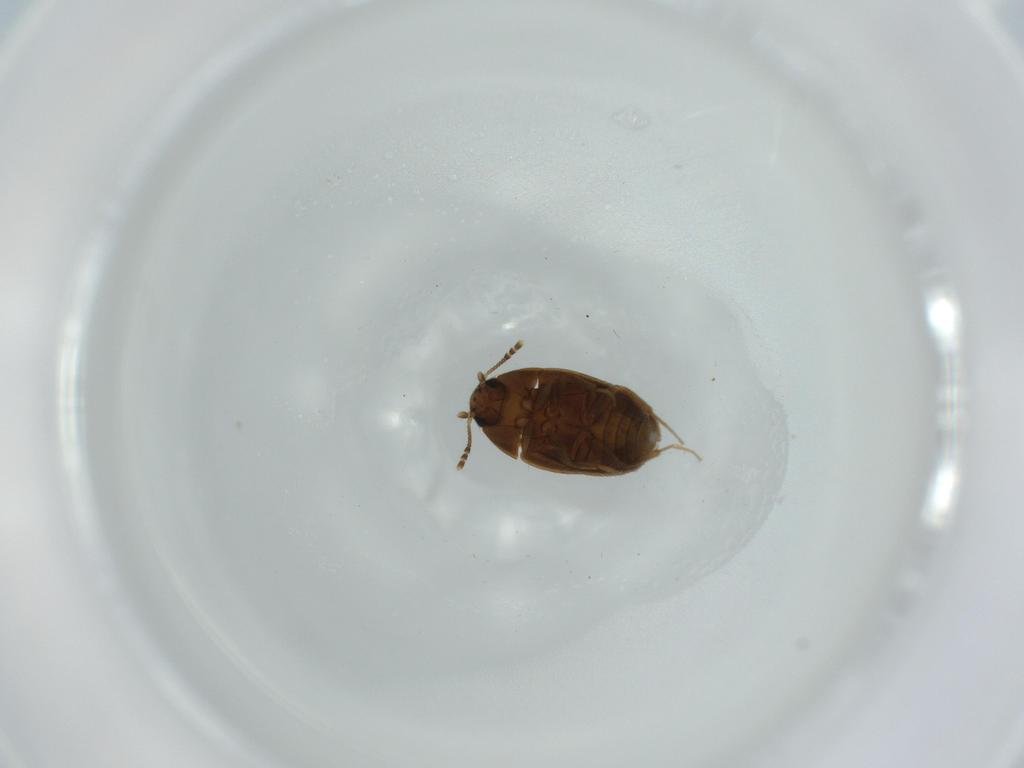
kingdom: Animalia
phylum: Arthropoda
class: Insecta
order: Coleoptera
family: Mycetophagidae
